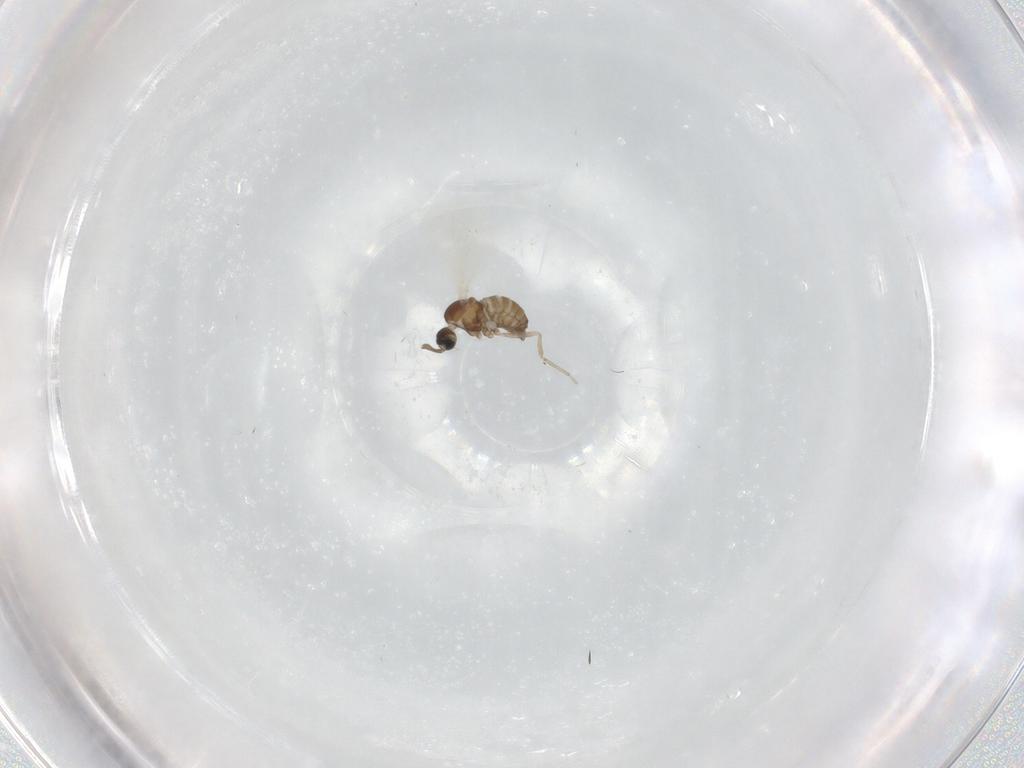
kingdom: Animalia
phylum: Arthropoda
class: Insecta
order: Diptera
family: Cecidomyiidae
